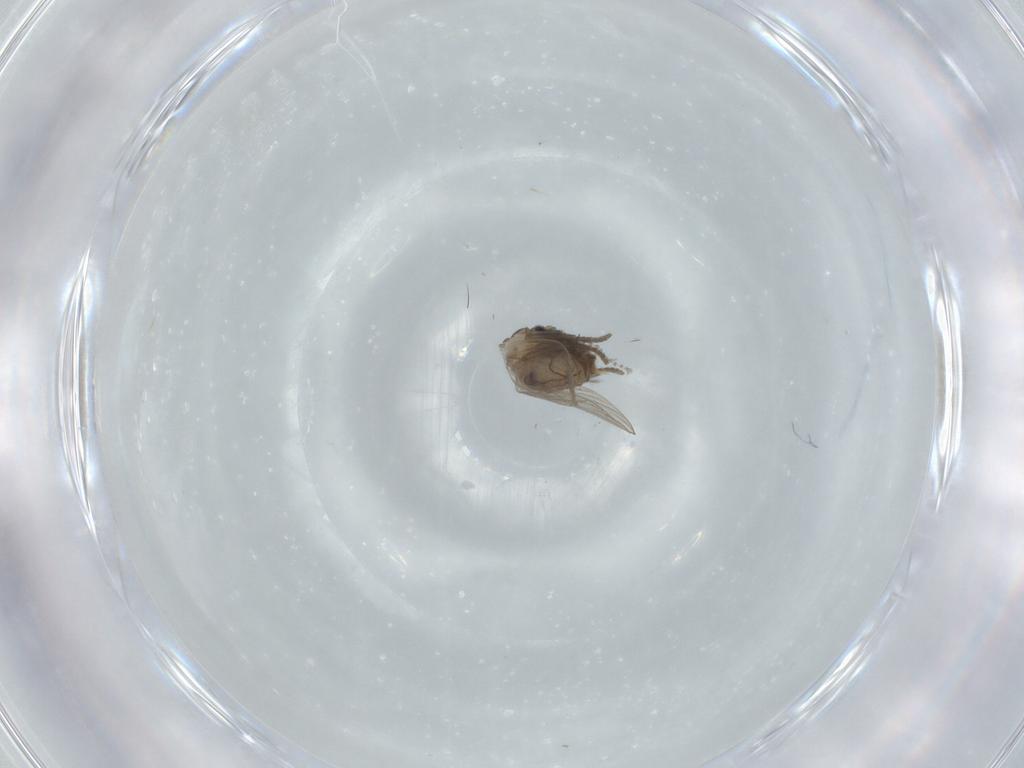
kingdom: Animalia
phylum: Arthropoda
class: Insecta
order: Diptera
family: Psychodidae
